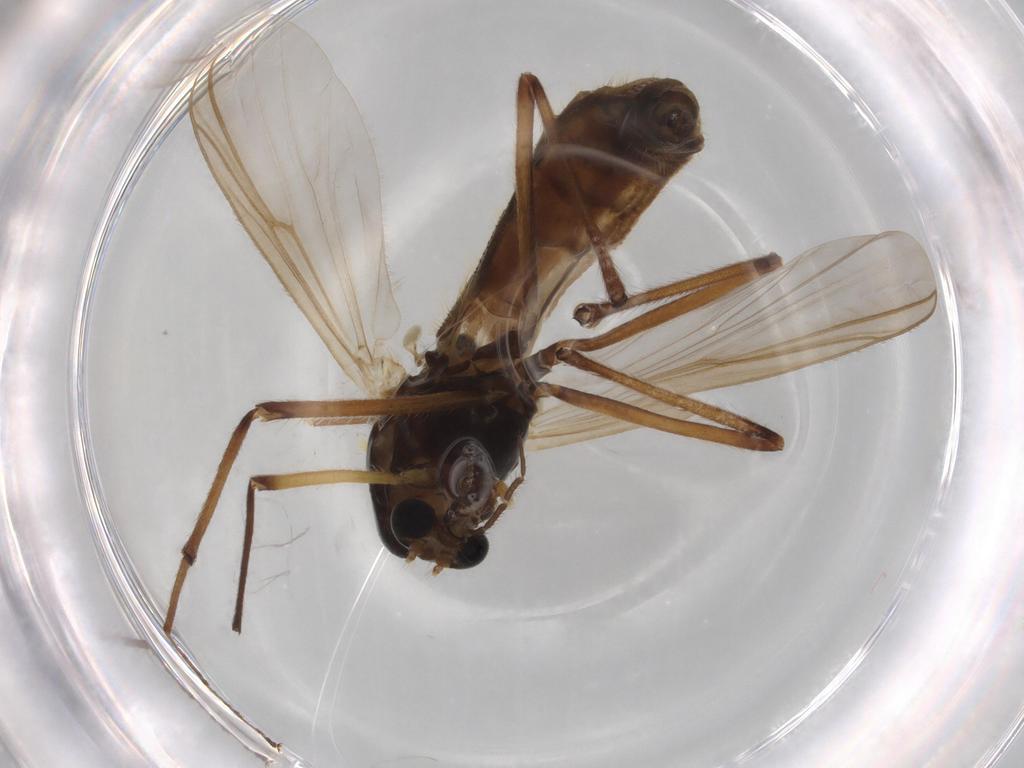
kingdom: Animalia
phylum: Arthropoda
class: Insecta
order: Diptera
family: Chironomidae
